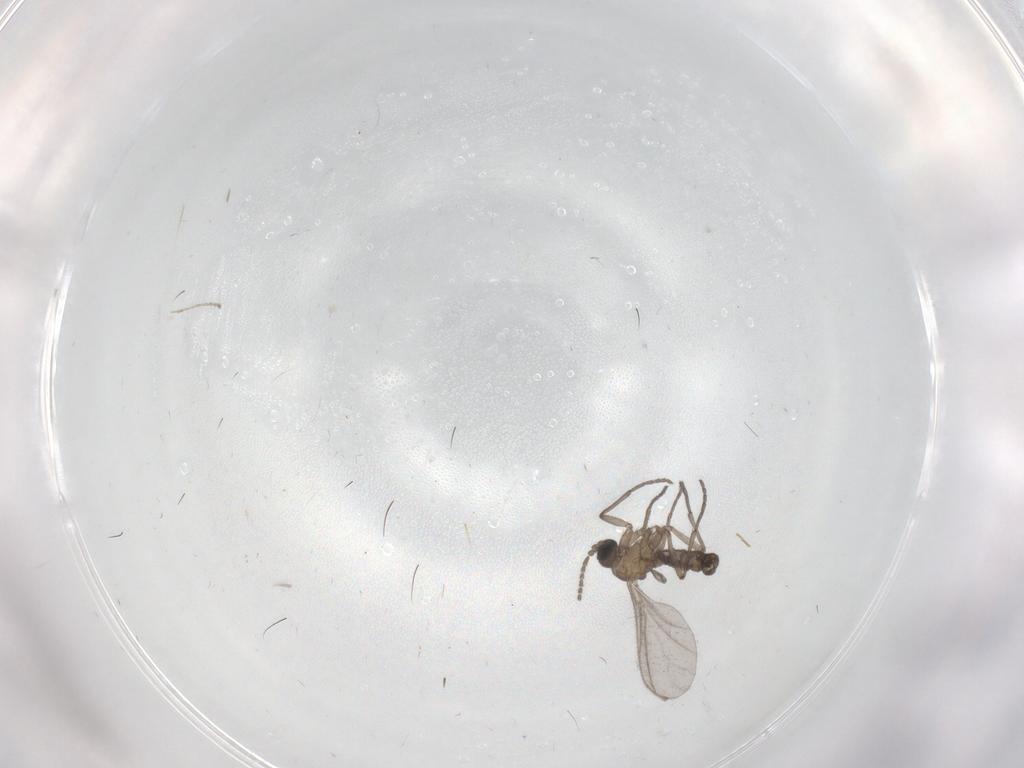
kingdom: Animalia
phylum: Arthropoda
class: Insecta
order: Diptera
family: Sciaridae
